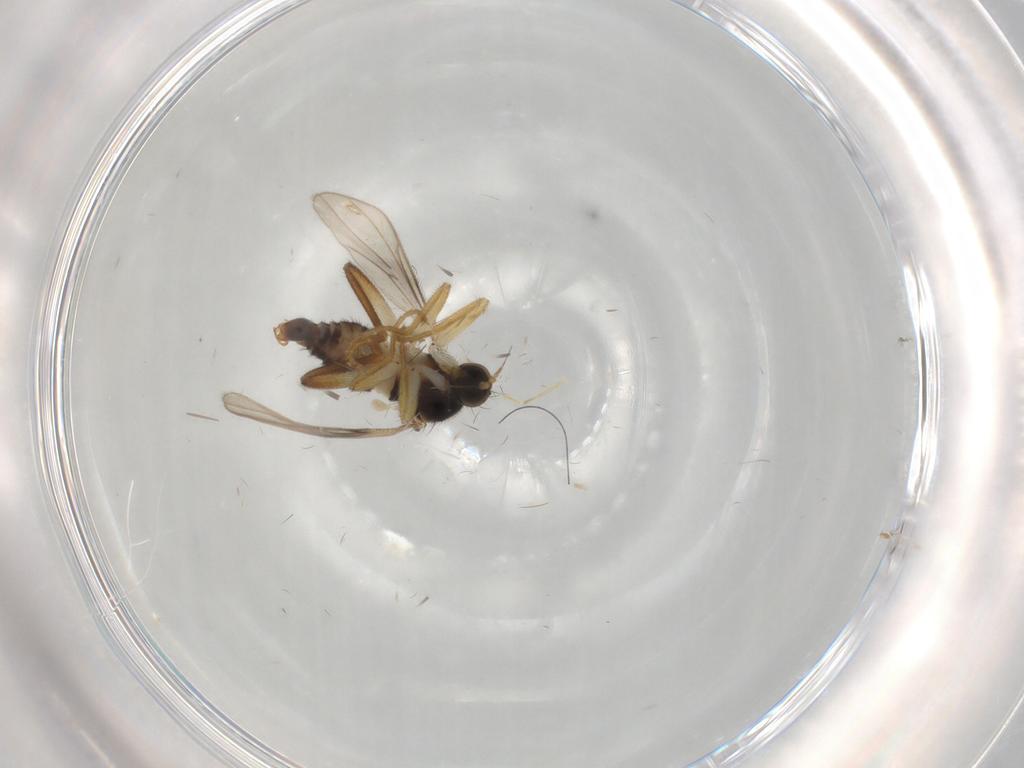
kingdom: Animalia
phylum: Arthropoda
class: Insecta
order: Diptera
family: Hybotidae
